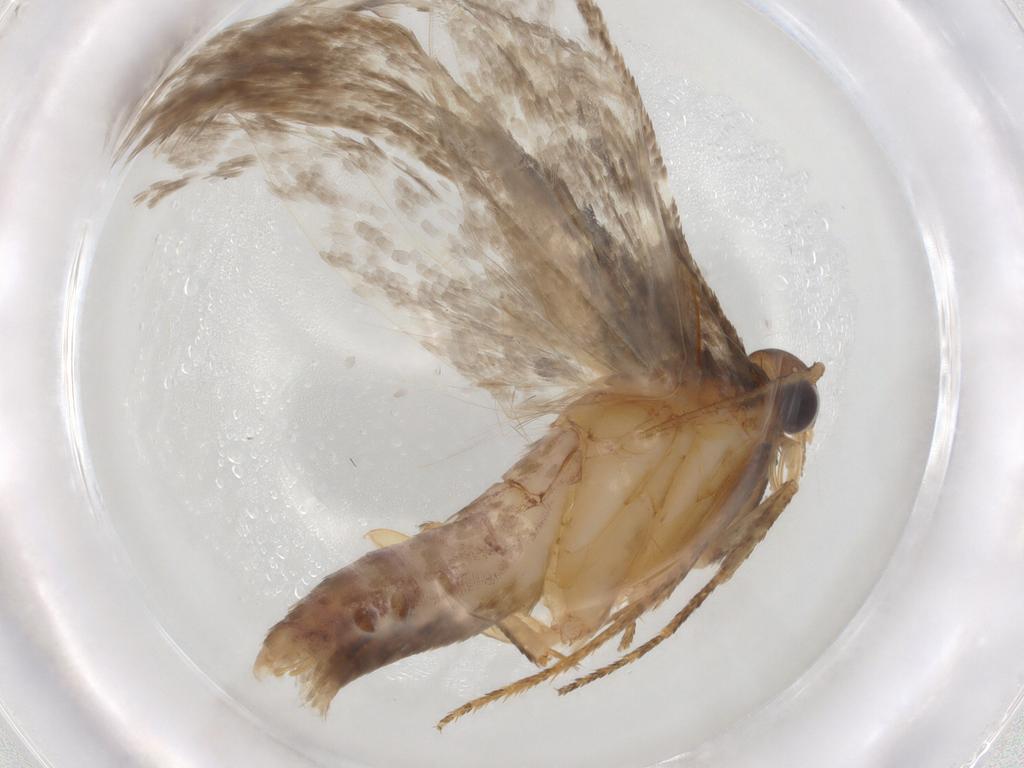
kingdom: Animalia
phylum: Arthropoda
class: Insecta
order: Lepidoptera
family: Gelechiidae
